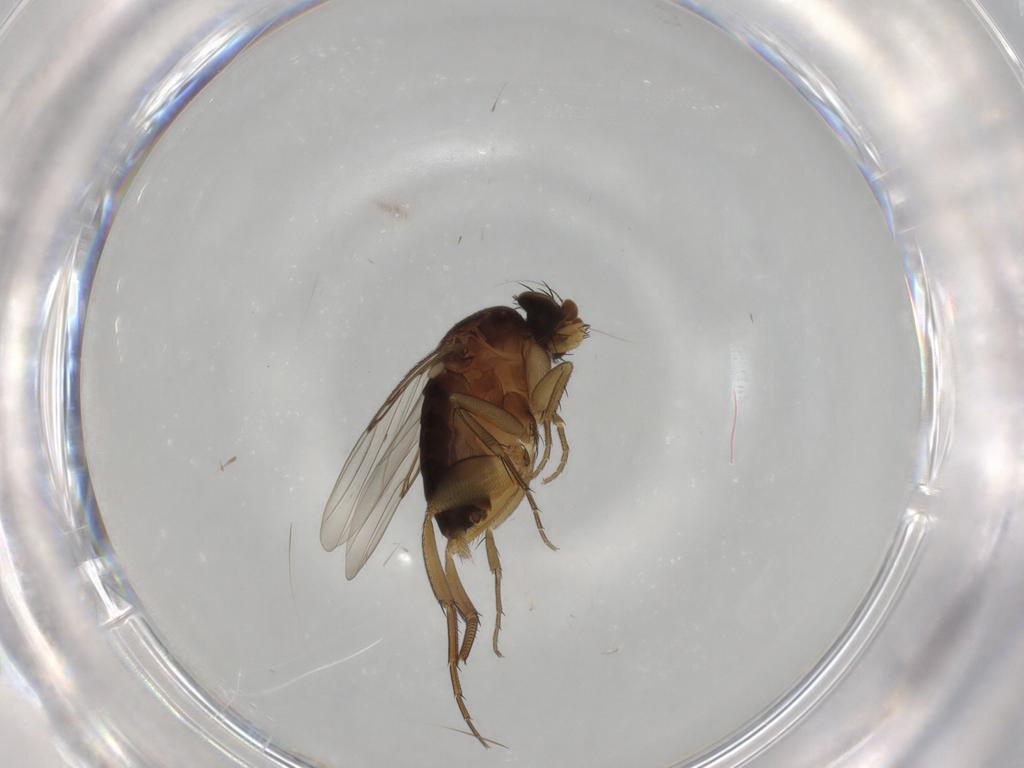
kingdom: Animalia
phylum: Arthropoda
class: Insecta
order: Diptera
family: Phoridae
